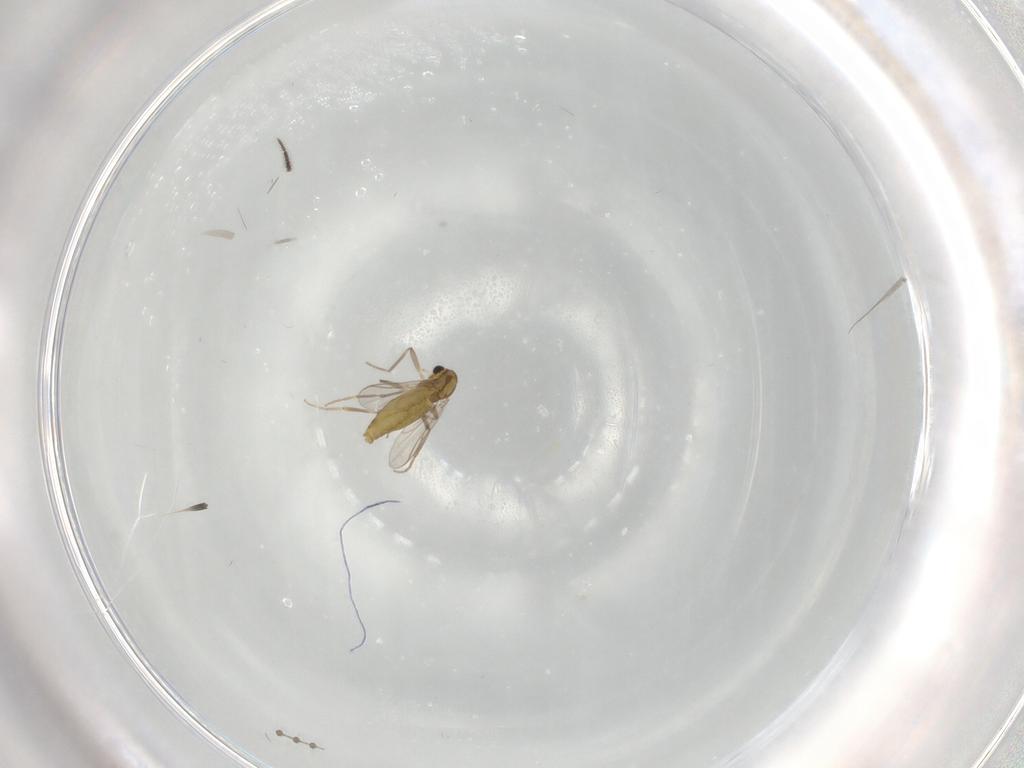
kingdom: Animalia
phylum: Arthropoda
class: Insecta
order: Diptera
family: Chironomidae
